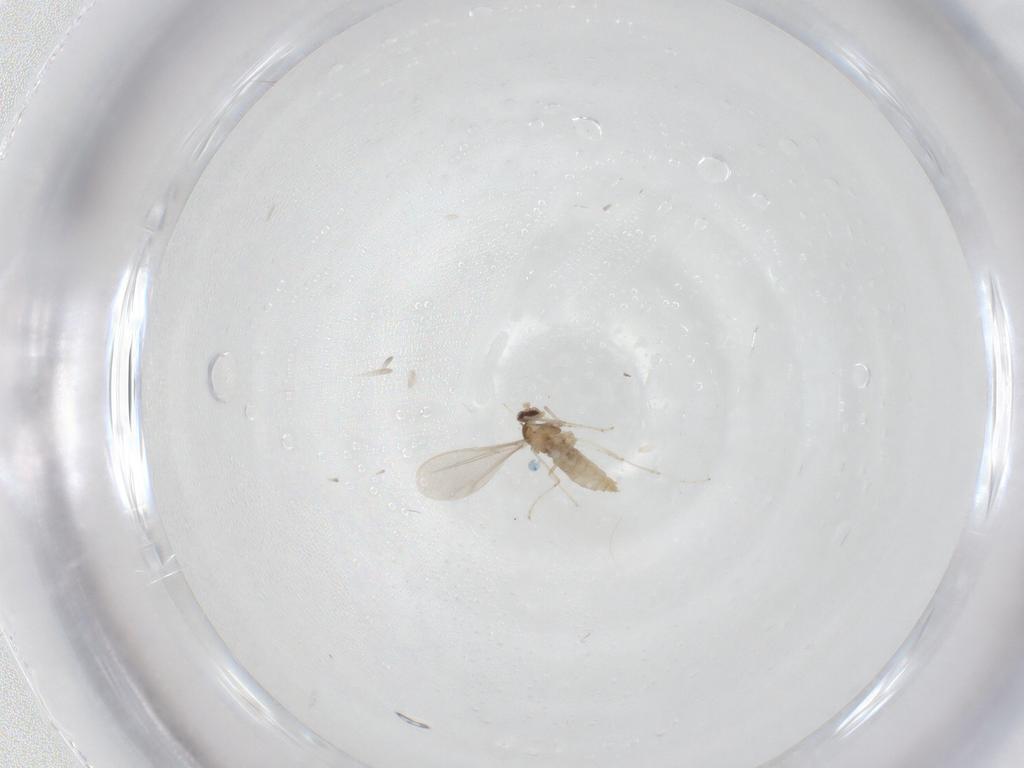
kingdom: Animalia
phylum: Arthropoda
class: Insecta
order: Diptera
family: Cecidomyiidae
